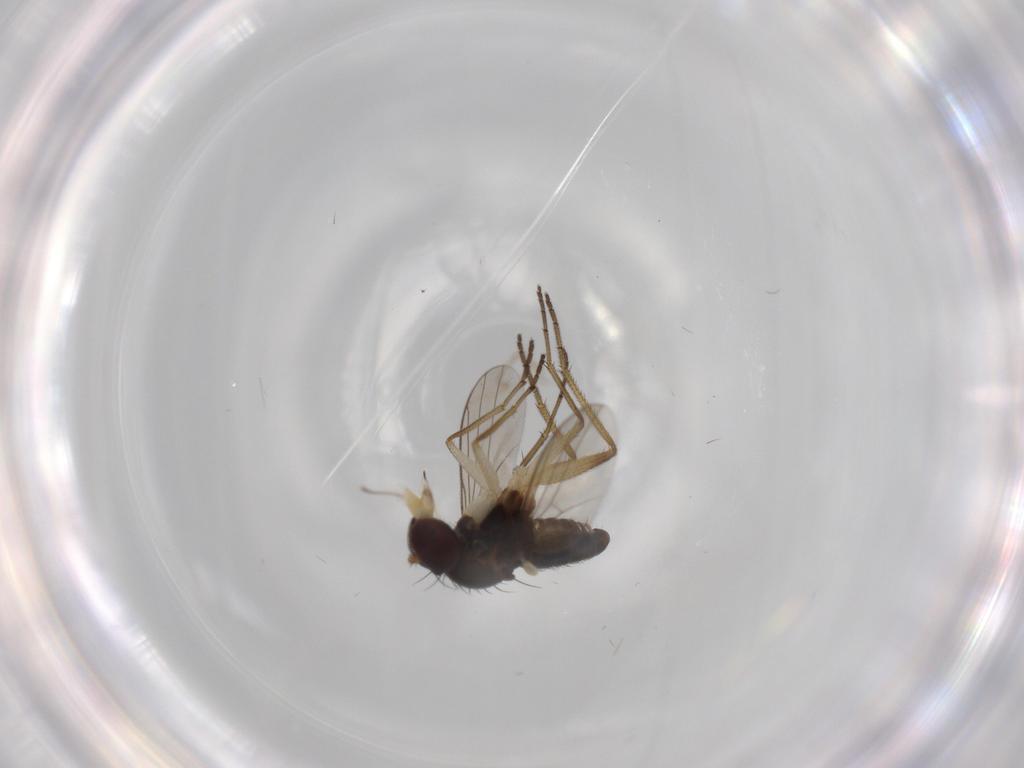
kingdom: Animalia
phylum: Arthropoda
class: Insecta
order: Diptera
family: Dolichopodidae
